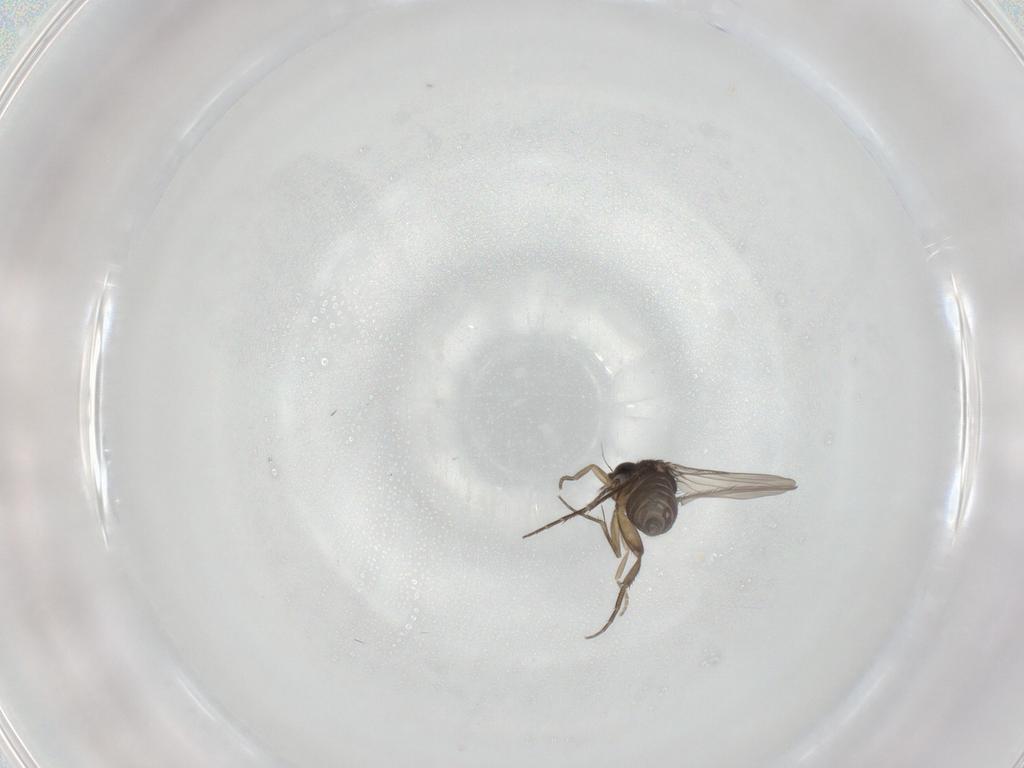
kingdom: Animalia
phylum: Arthropoda
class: Insecta
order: Diptera
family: Phoridae
